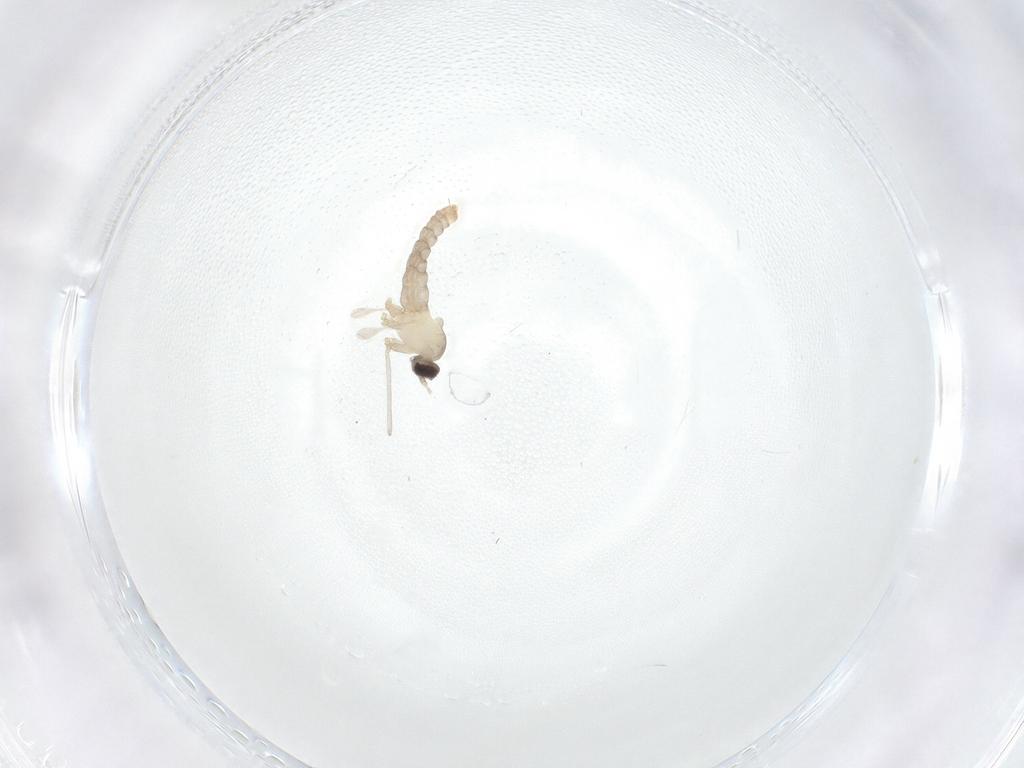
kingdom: Animalia
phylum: Arthropoda
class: Insecta
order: Diptera
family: Cecidomyiidae
